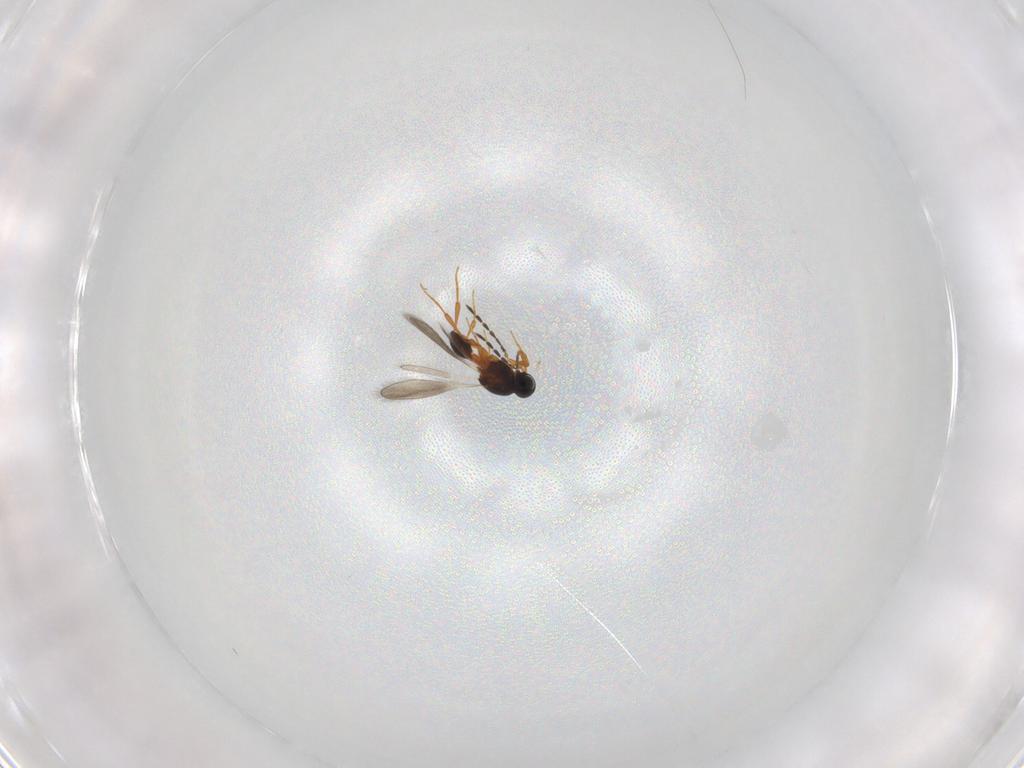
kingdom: Animalia
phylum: Arthropoda
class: Insecta
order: Hymenoptera
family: Platygastridae
